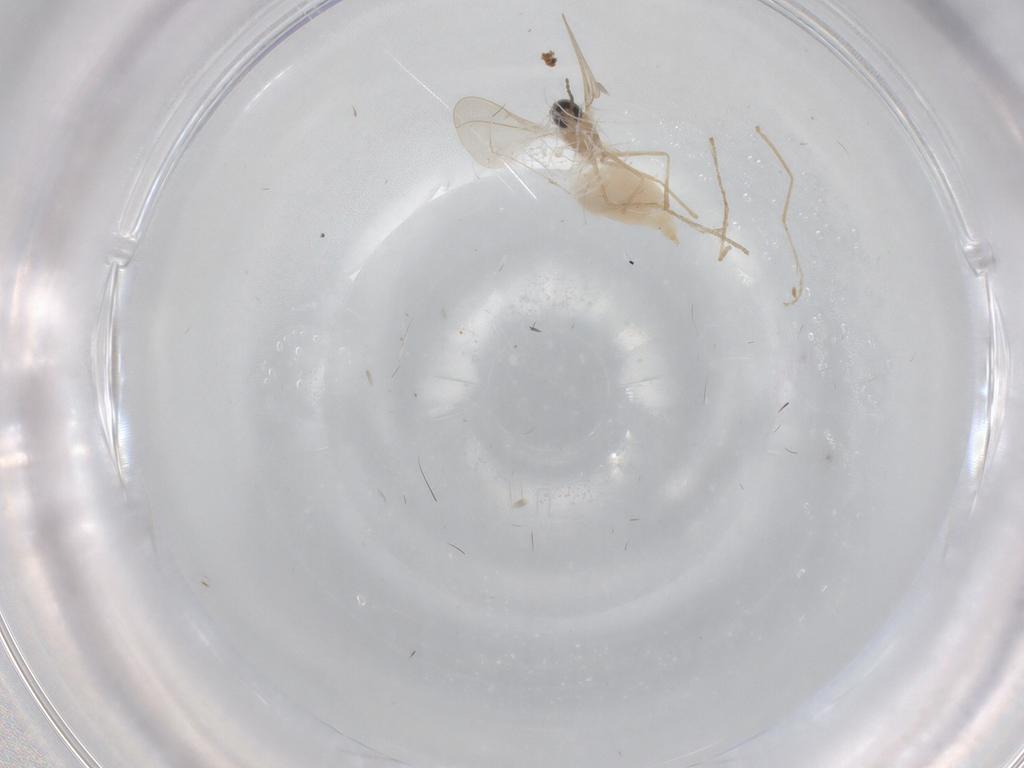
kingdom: Animalia
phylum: Arthropoda
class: Insecta
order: Diptera
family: Cecidomyiidae
